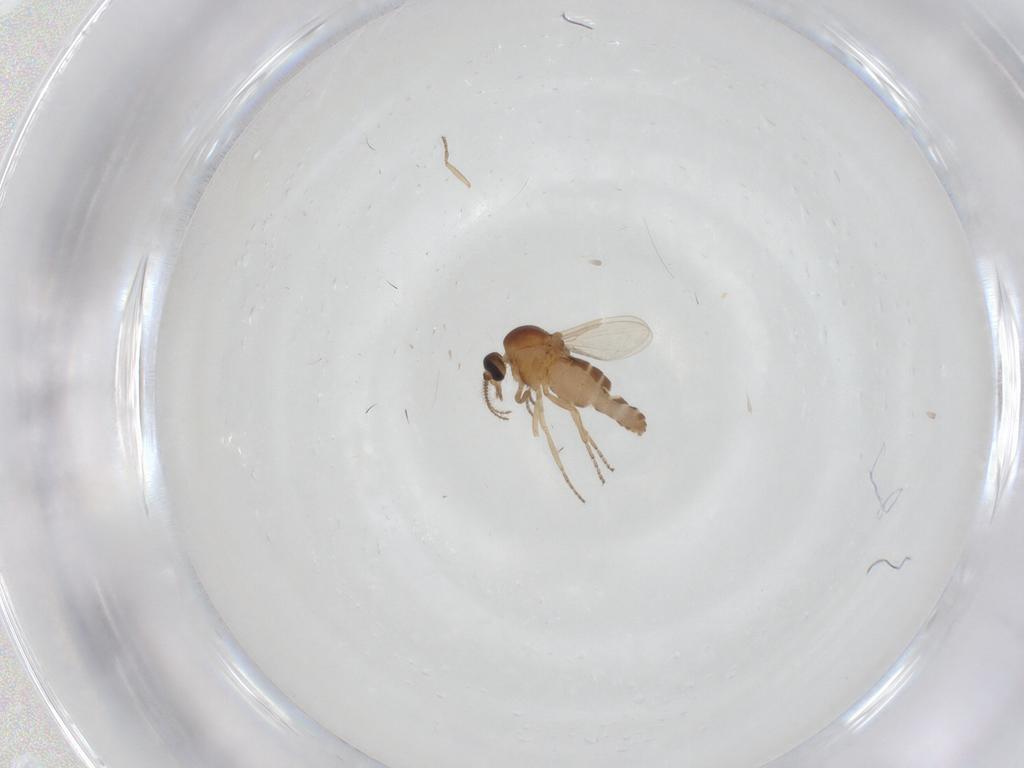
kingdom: Animalia
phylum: Arthropoda
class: Insecta
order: Diptera
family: Ceratopogonidae
